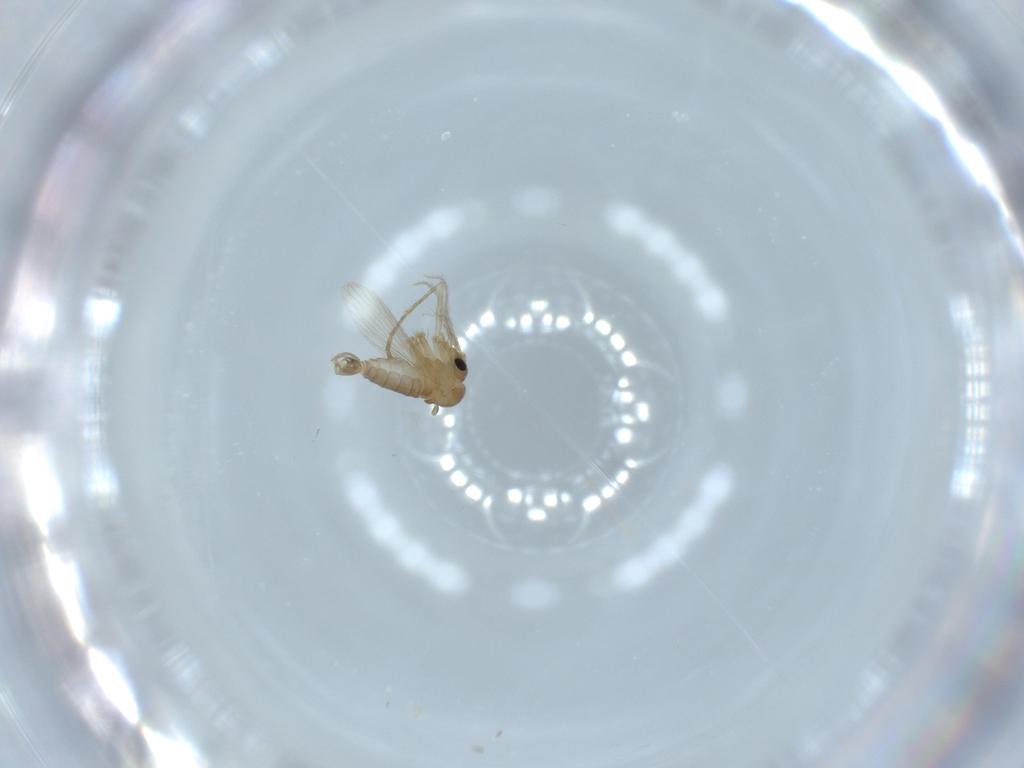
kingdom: Animalia
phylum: Arthropoda
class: Insecta
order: Diptera
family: Psychodidae
